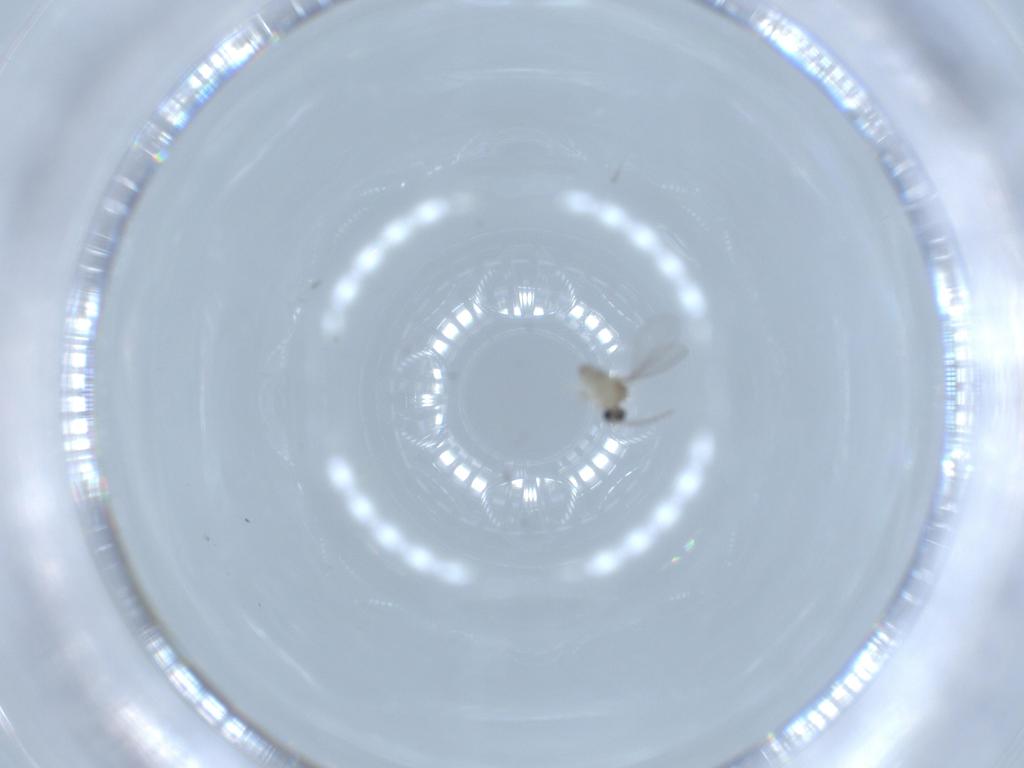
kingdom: Animalia
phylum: Arthropoda
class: Insecta
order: Diptera
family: Cecidomyiidae
